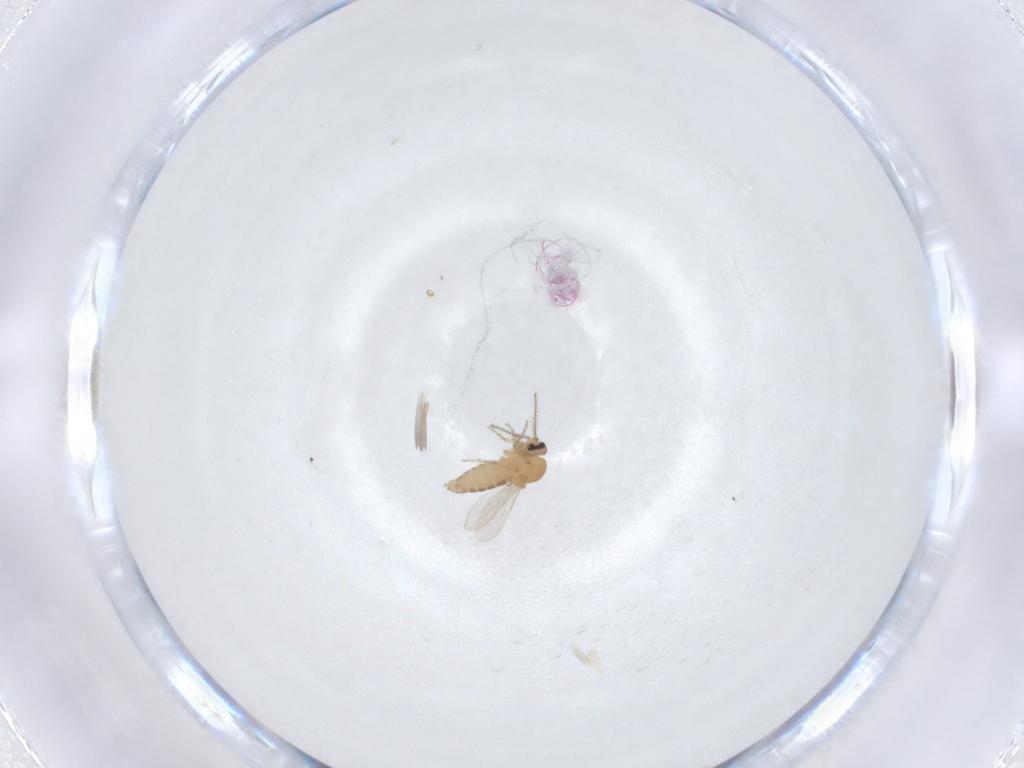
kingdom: Animalia
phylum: Arthropoda
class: Insecta
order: Diptera
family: Ceratopogonidae
